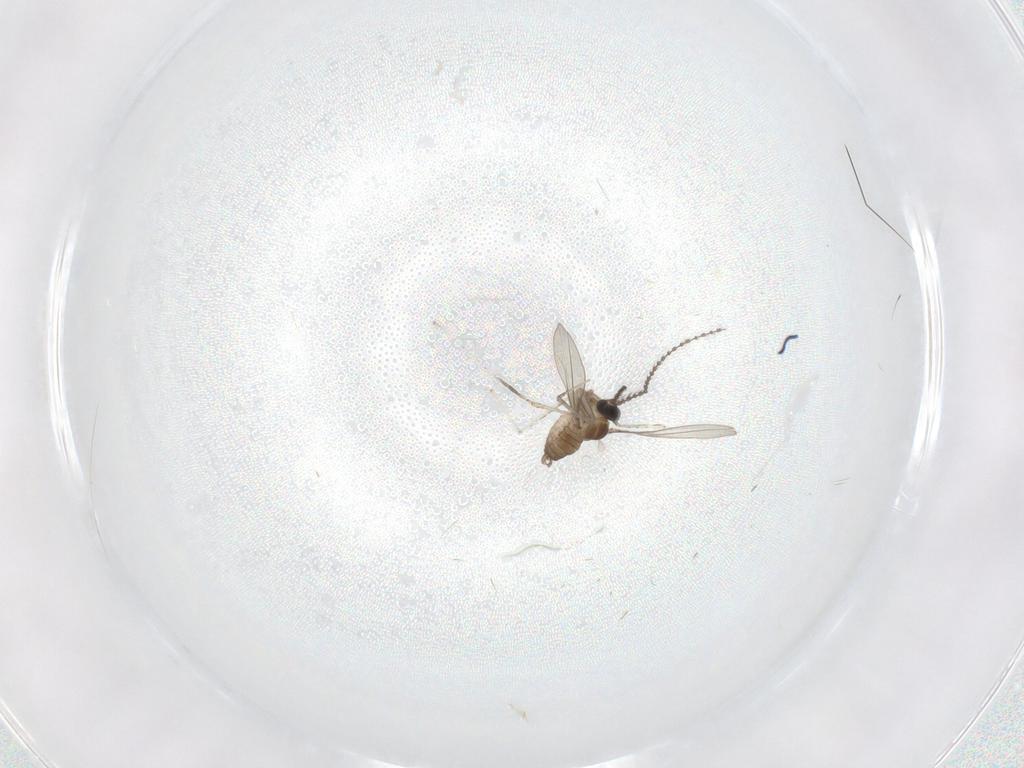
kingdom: Animalia
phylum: Arthropoda
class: Insecta
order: Diptera
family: Cecidomyiidae
